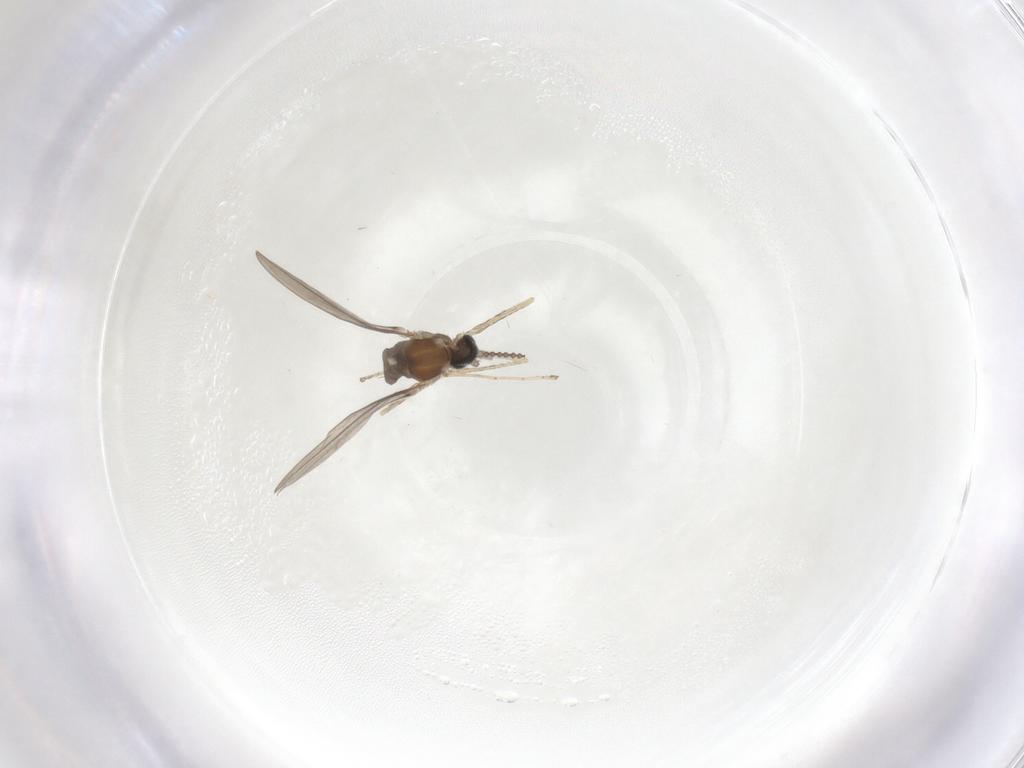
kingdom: Animalia
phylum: Arthropoda
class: Insecta
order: Diptera
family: Cecidomyiidae
